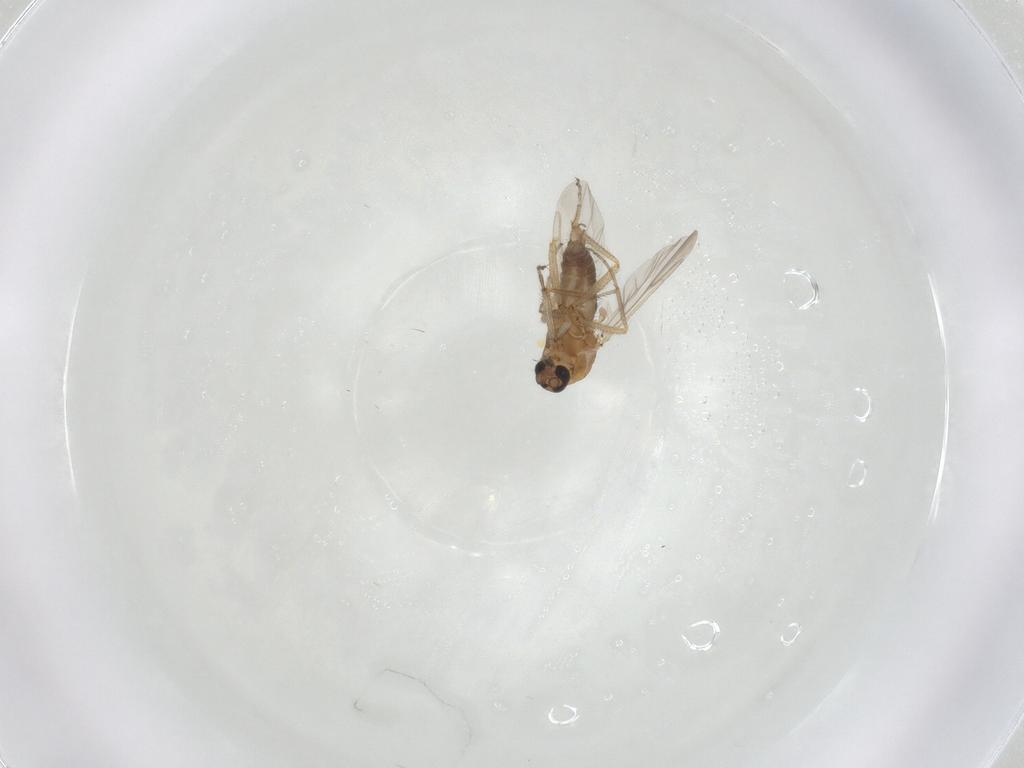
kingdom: Animalia
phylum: Arthropoda
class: Insecta
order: Diptera
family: Ceratopogonidae
